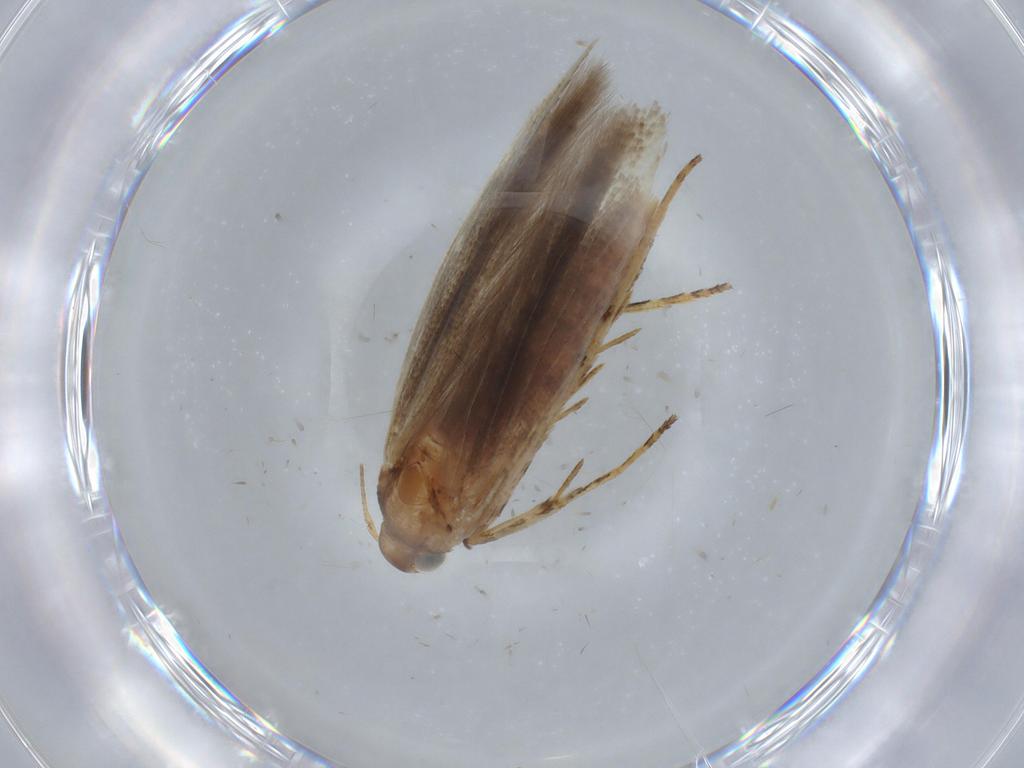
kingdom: Animalia
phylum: Arthropoda
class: Insecta
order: Lepidoptera
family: Gelechiidae
